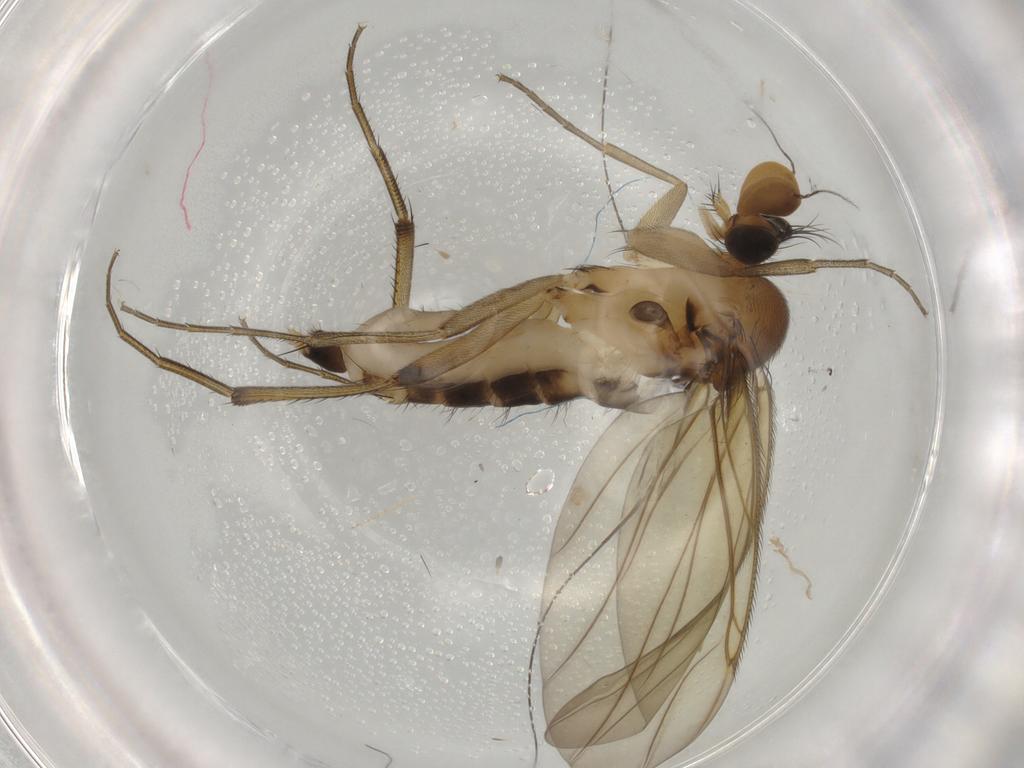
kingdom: Animalia
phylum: Arthropoda
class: Insecta
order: Diptera
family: Phoridae
